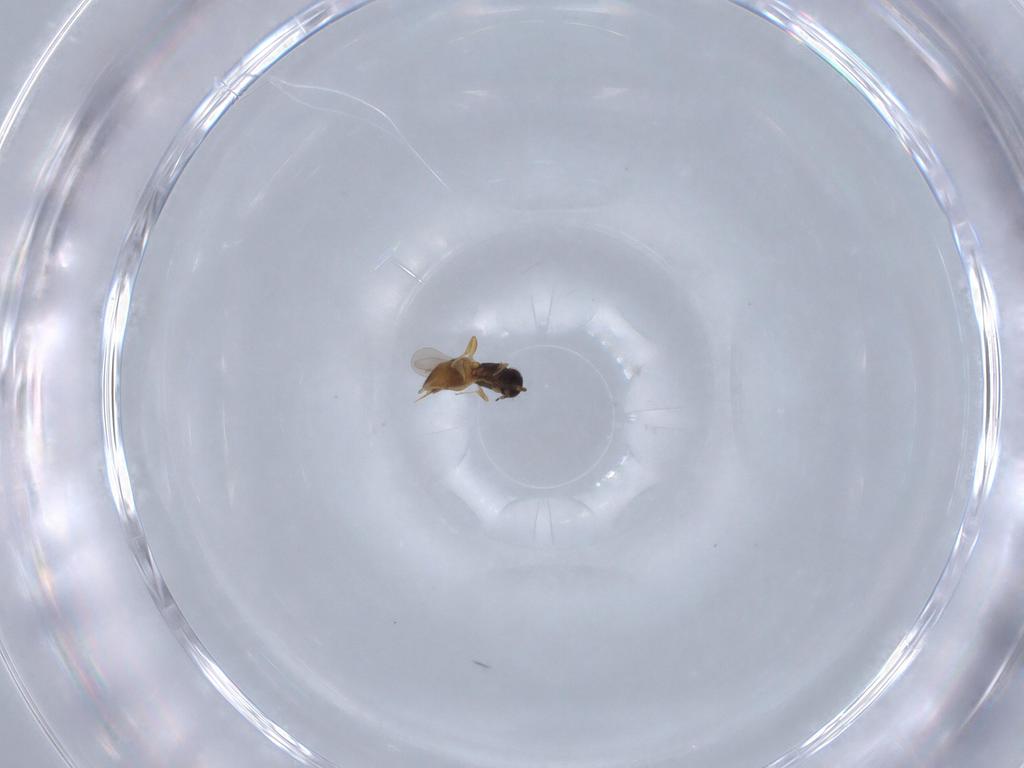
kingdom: Animalia
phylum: Arthropoda
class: Insecta
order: Hymenoptera
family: Ceraphronidae
